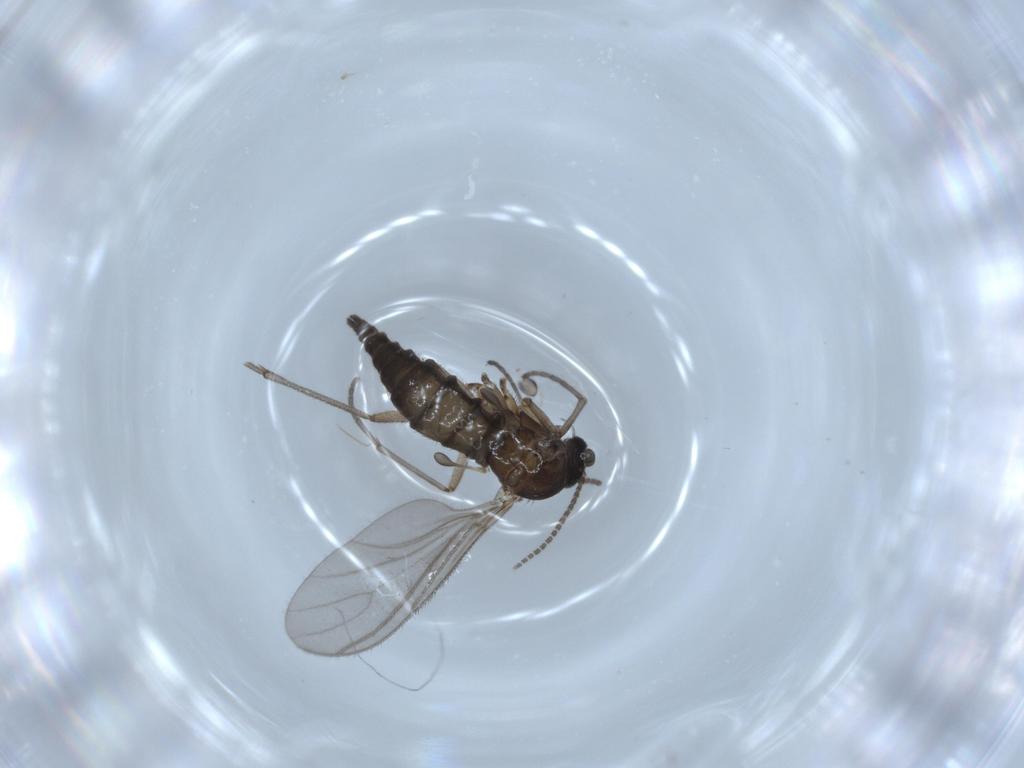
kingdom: Animalia
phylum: Arthropoda
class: Insecta
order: Diptera
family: Sciaridae
